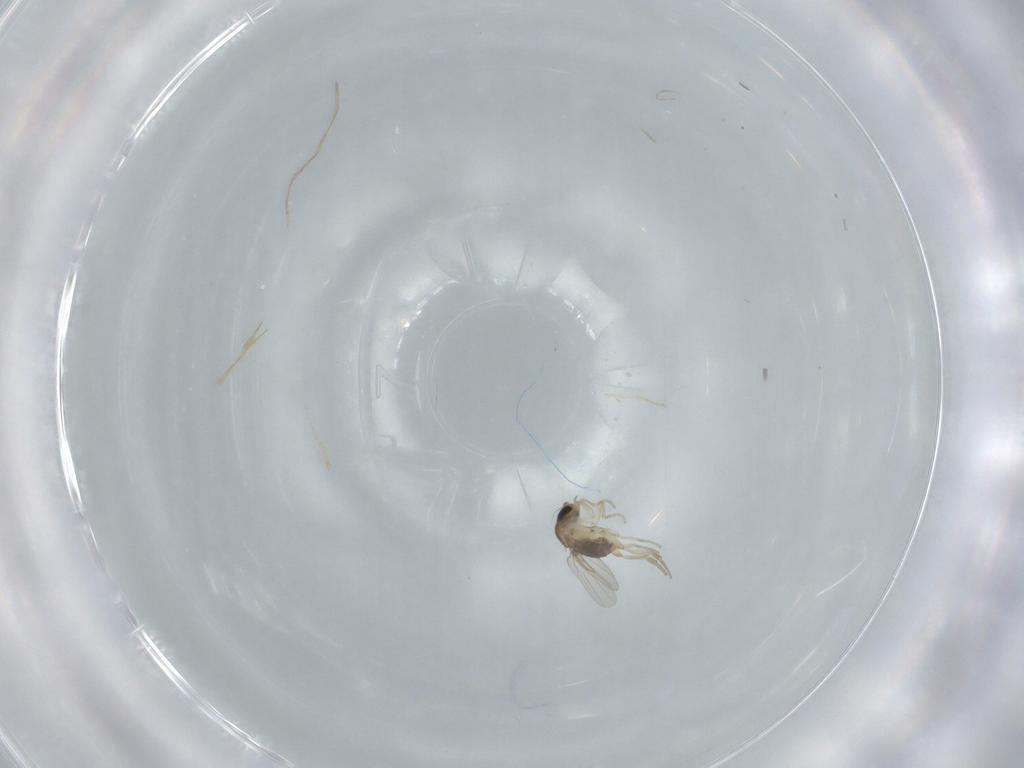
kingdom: Animalia
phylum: Arthropoda
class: Insecta
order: Diptera
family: Phoridae
